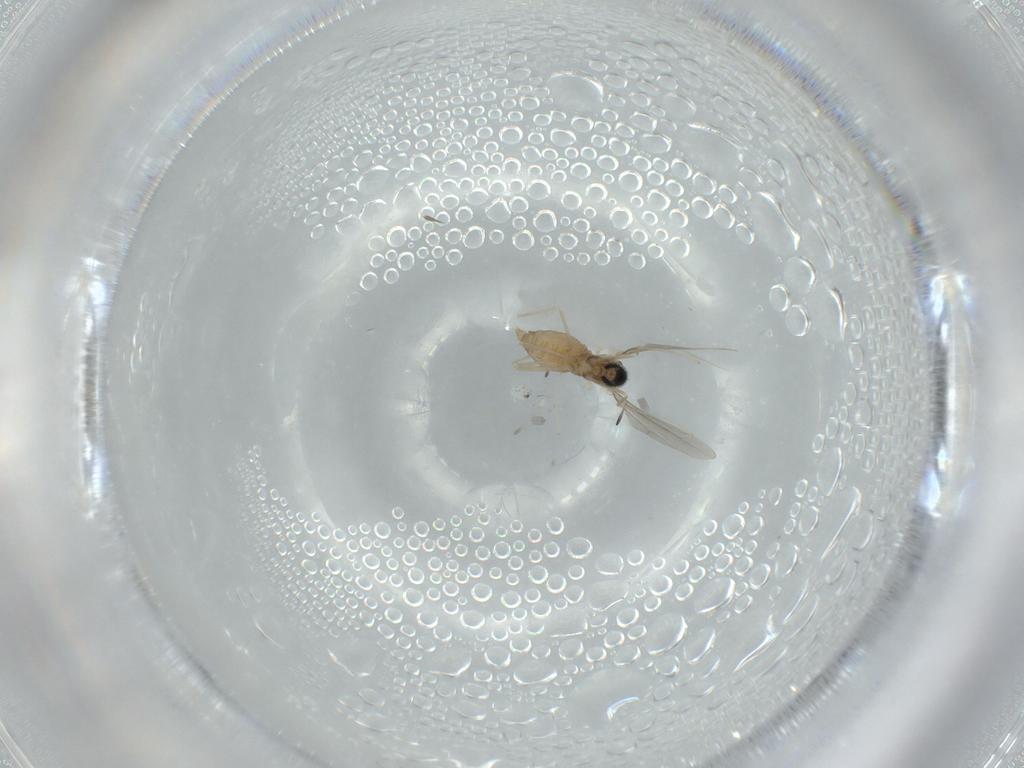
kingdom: Animalia
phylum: Arthropoda
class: Insecta
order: Diptera
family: Cecidomyiidae
